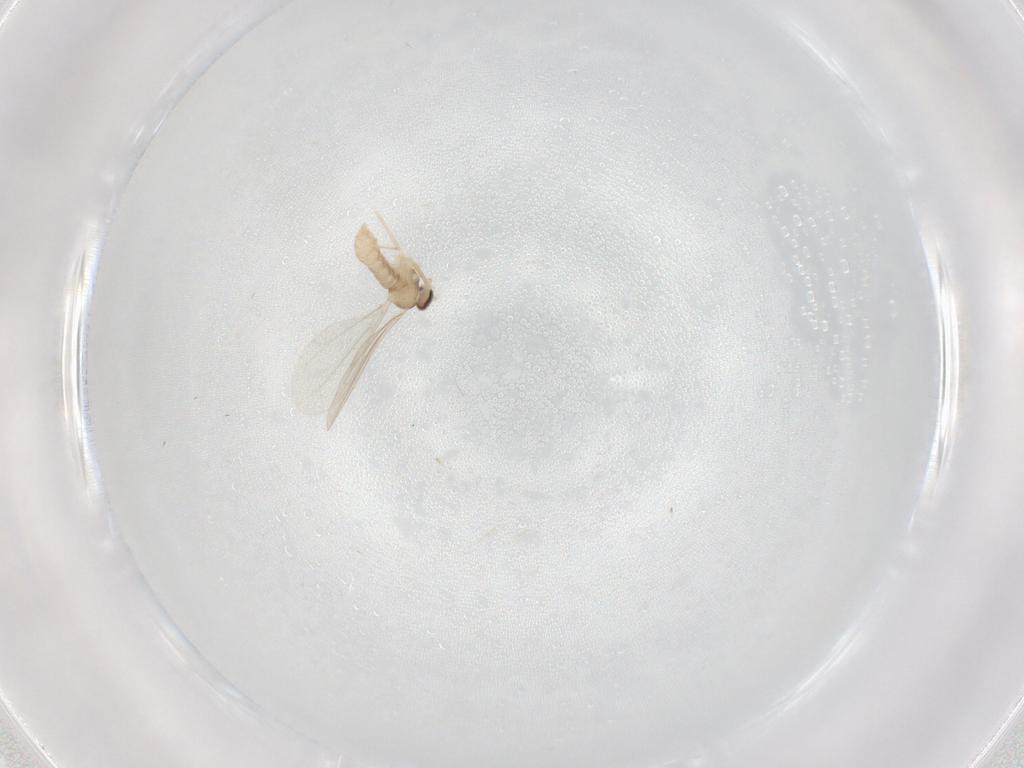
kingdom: Animalia
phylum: Arthropoda
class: Insecta
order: Diptera
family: Cecidomyiidae
